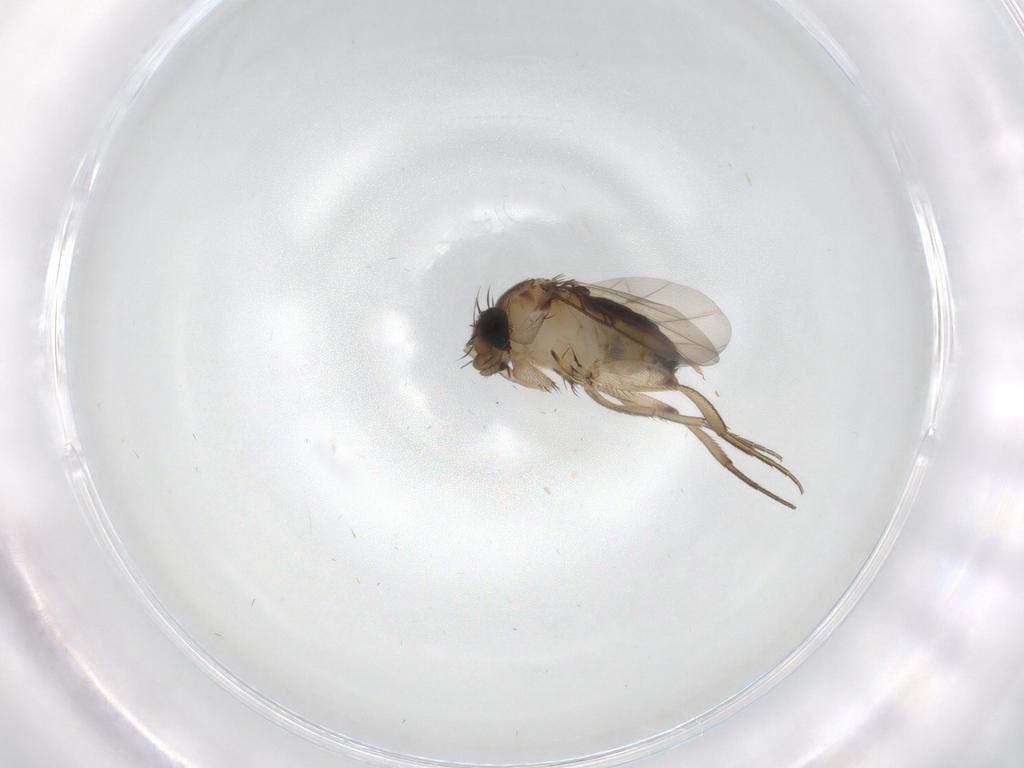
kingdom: Animalia
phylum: Arthropoda
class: Insecta
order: Diptera
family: Phoridae
